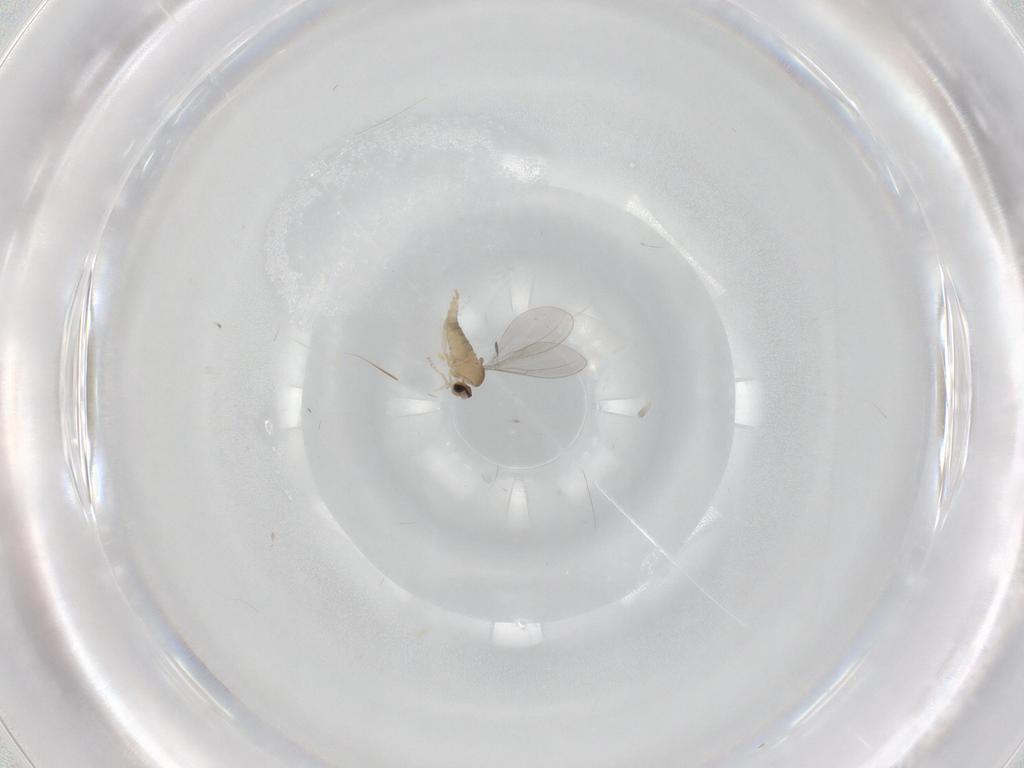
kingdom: Animalia
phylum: Arthropoda
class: Insecta
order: Diptera
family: Cecidomyiidae
